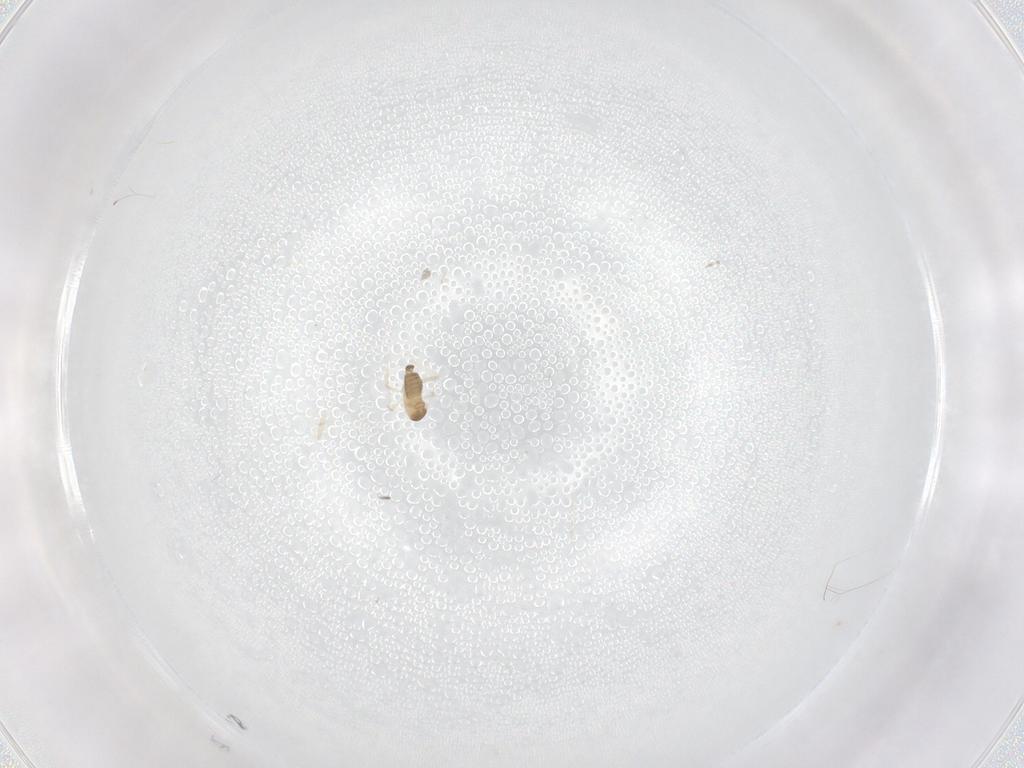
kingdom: Animalia
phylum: Arthropoda
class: Insecta
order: Diptera
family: Cecidomyiidae
